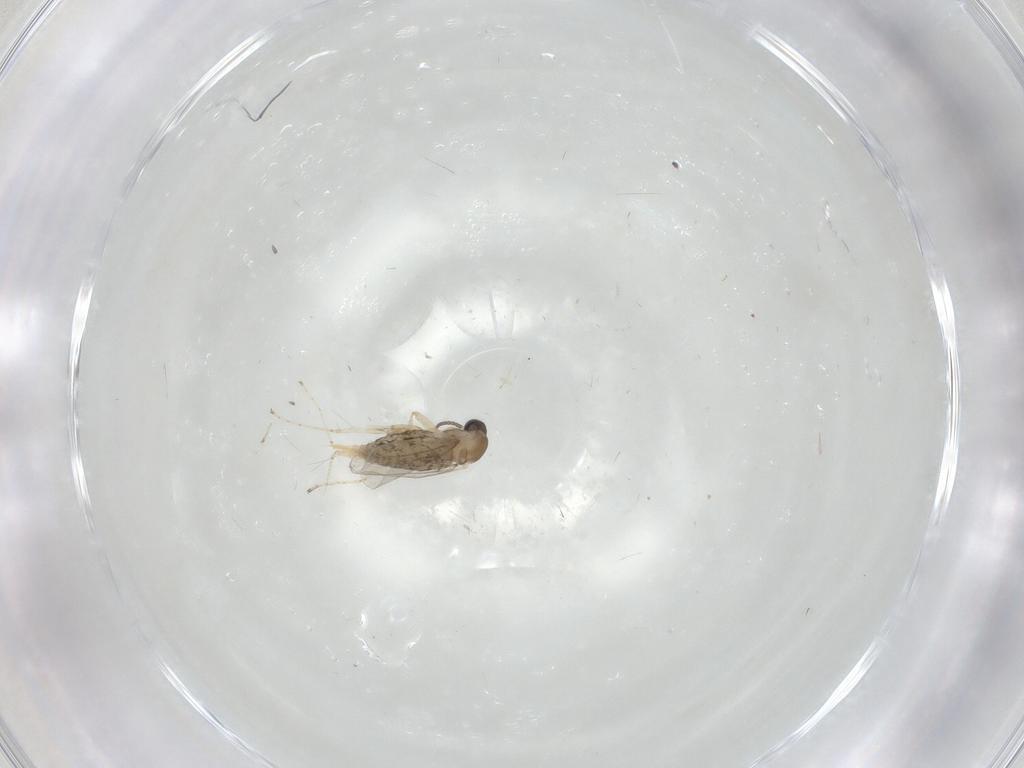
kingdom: Animalia
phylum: Arthropoda
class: Insecta
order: Diptera
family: Cecidomyiidae
